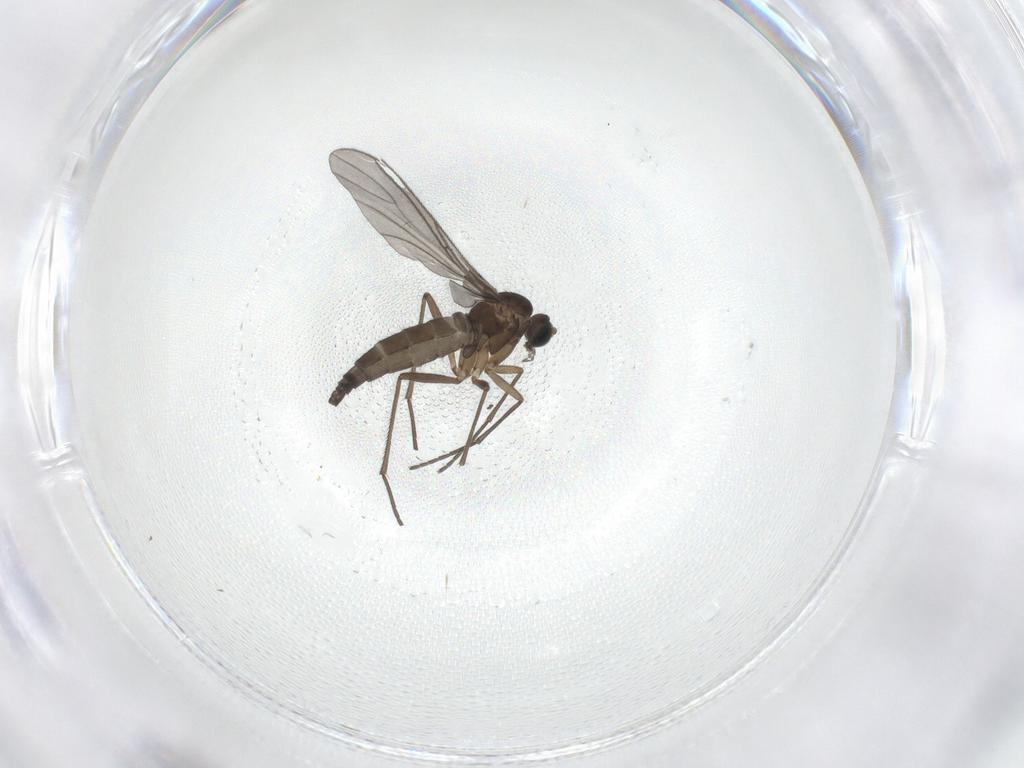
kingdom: Animalia
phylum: Arthropoda
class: Insecta
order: Diptera
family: Sciaridae
